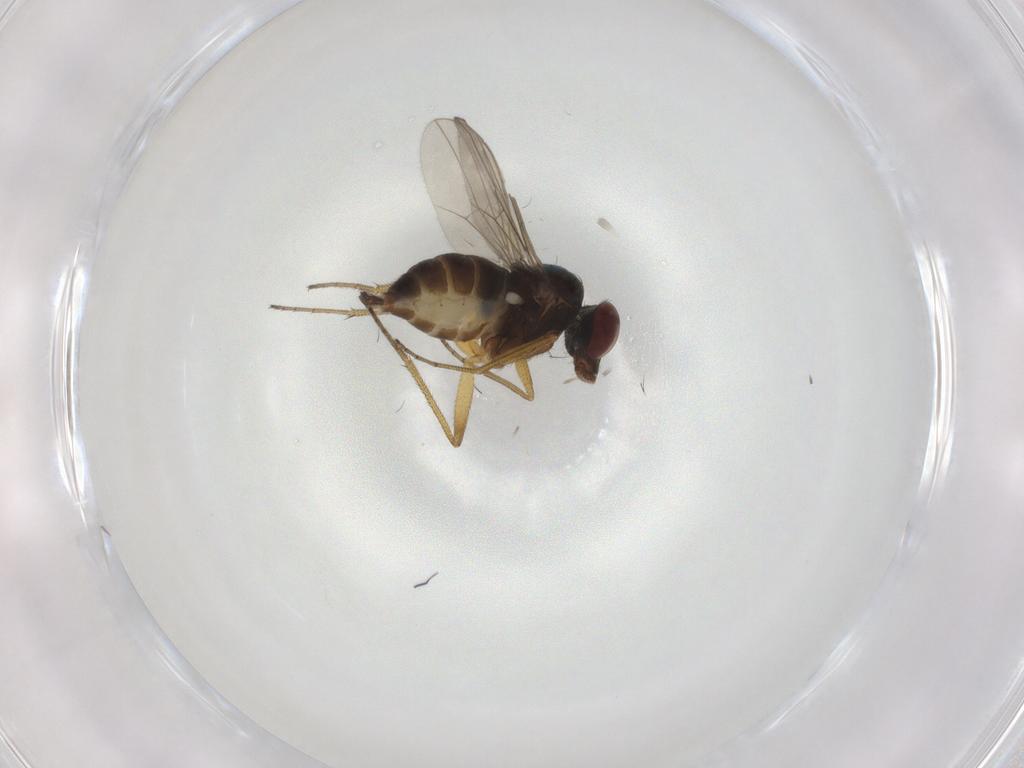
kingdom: Animalia
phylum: Arthropoda
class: Insecta
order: Diptera
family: Dolichopodidae
